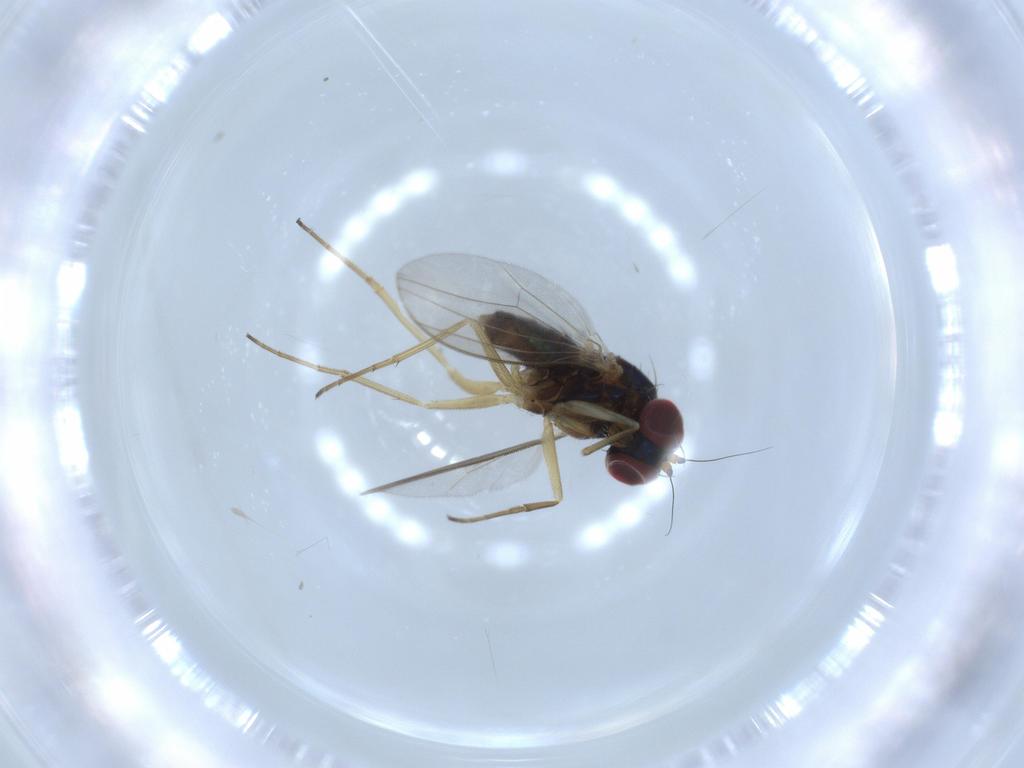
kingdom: Animalia
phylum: Arthropoda
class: Insecta
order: Diptera
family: Dolichopodidae
